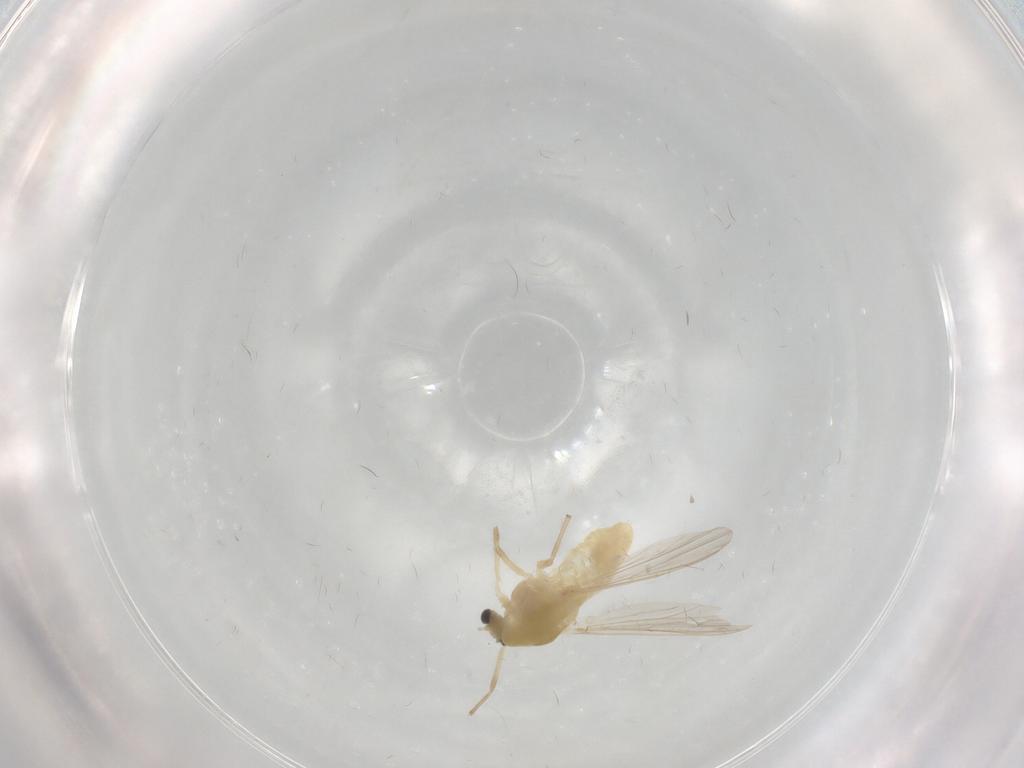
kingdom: Animalia
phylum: Arthropoda
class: Insecta
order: Diptera
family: Chironomidae
